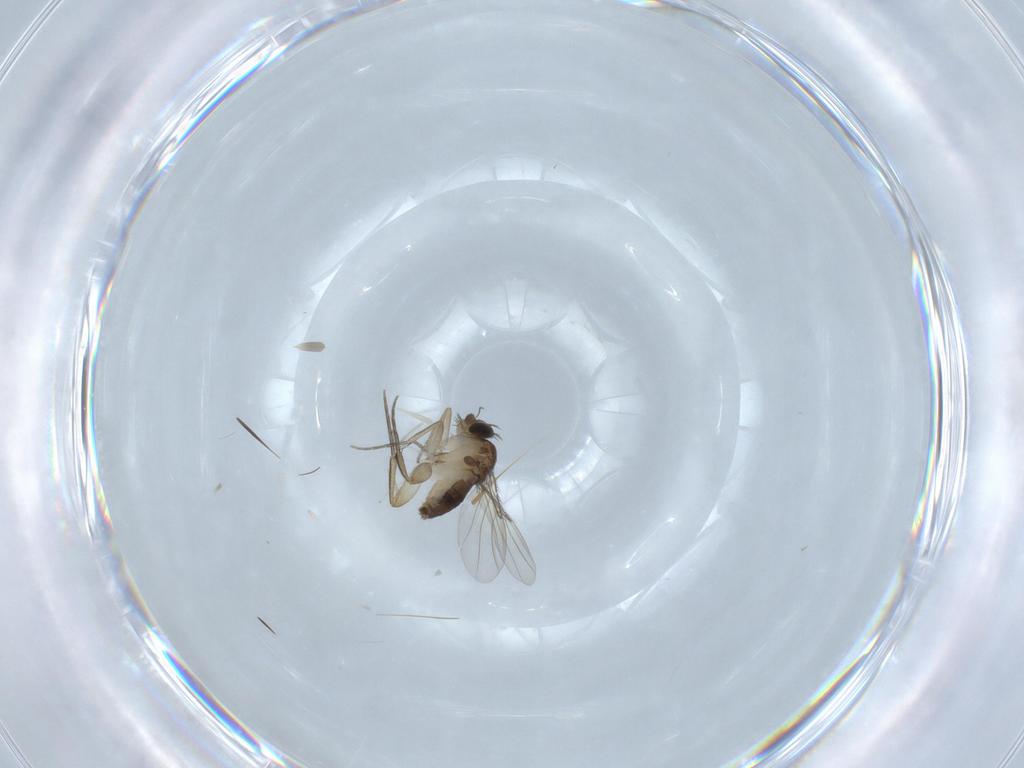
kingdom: Animalia
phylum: Arthropoda
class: Insecta
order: Diptera
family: Phoridae
